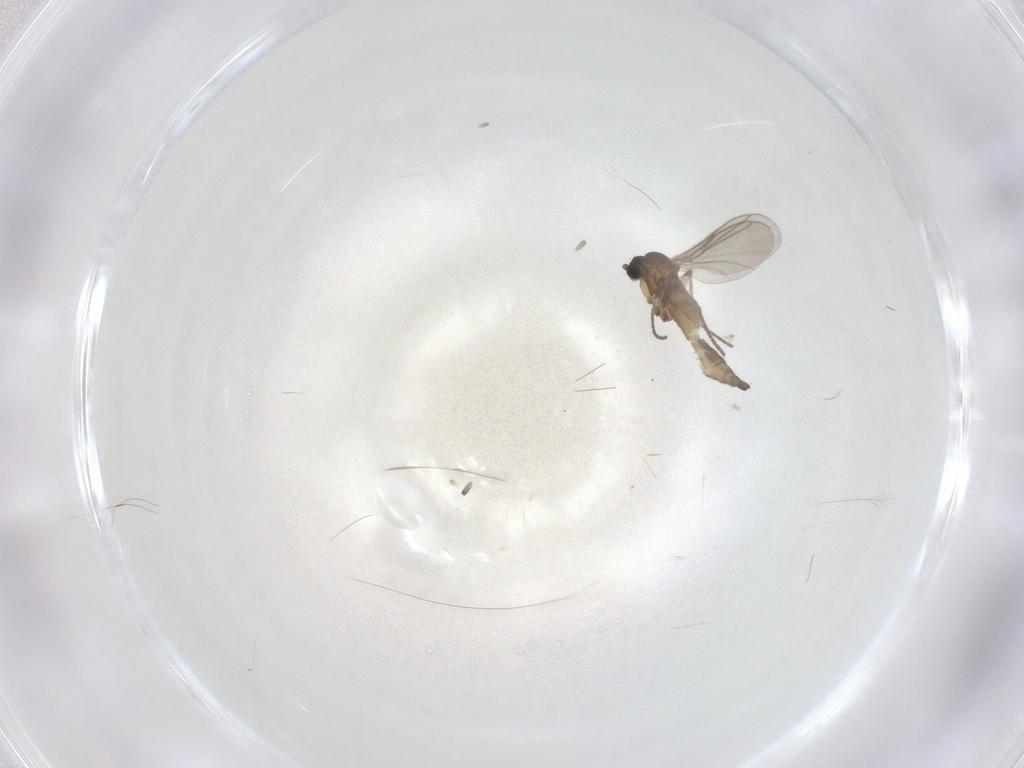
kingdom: Animalia
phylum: Arthropoda
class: Insecta
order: Diptera
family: Sciaridae
